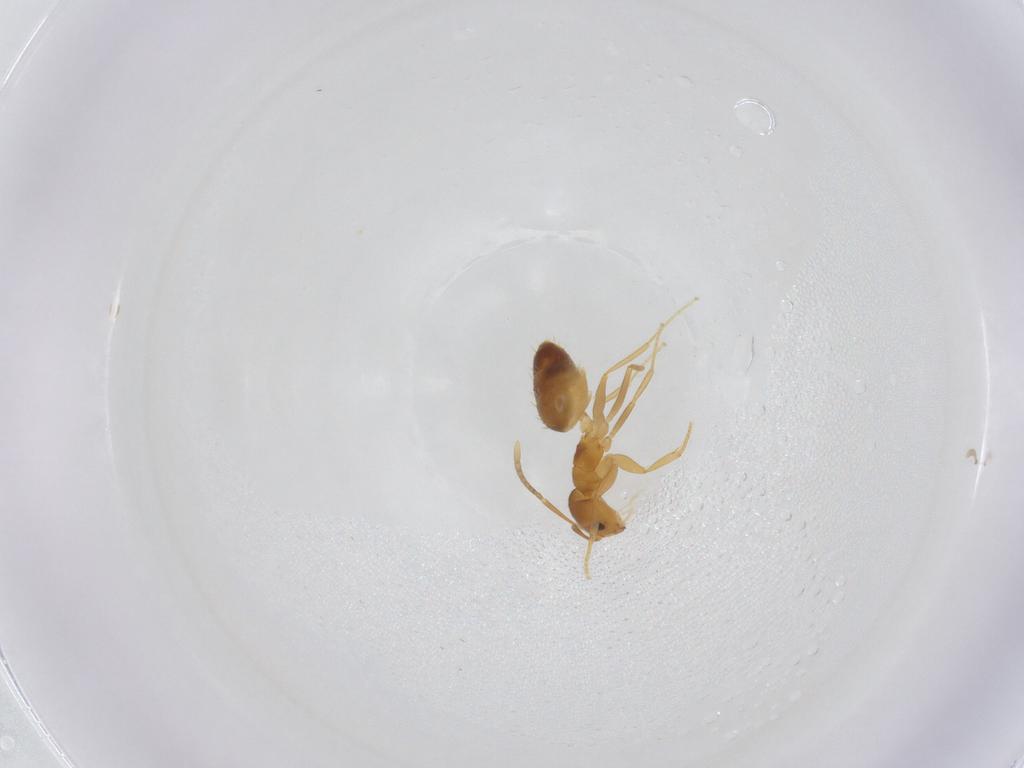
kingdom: Animalia
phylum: Arthropoda
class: Insecta
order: Hymenoptera
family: Formicidae
